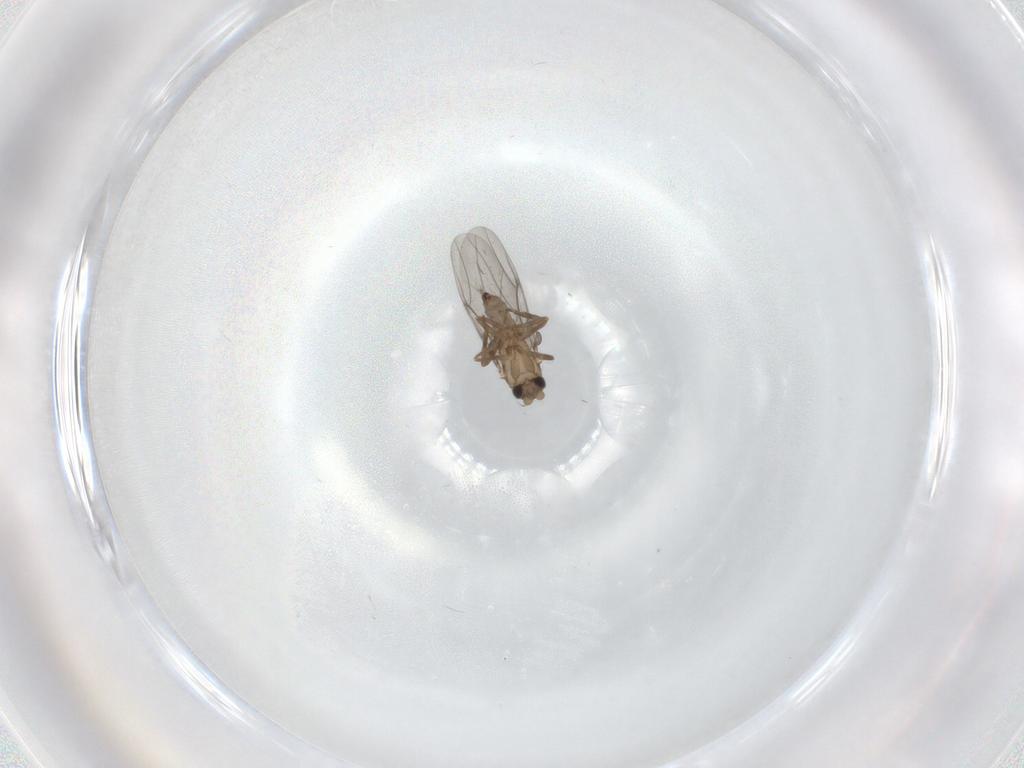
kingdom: Animalia
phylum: Arthropoda
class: Insecta
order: Diptera
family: Cecidomyiidae
